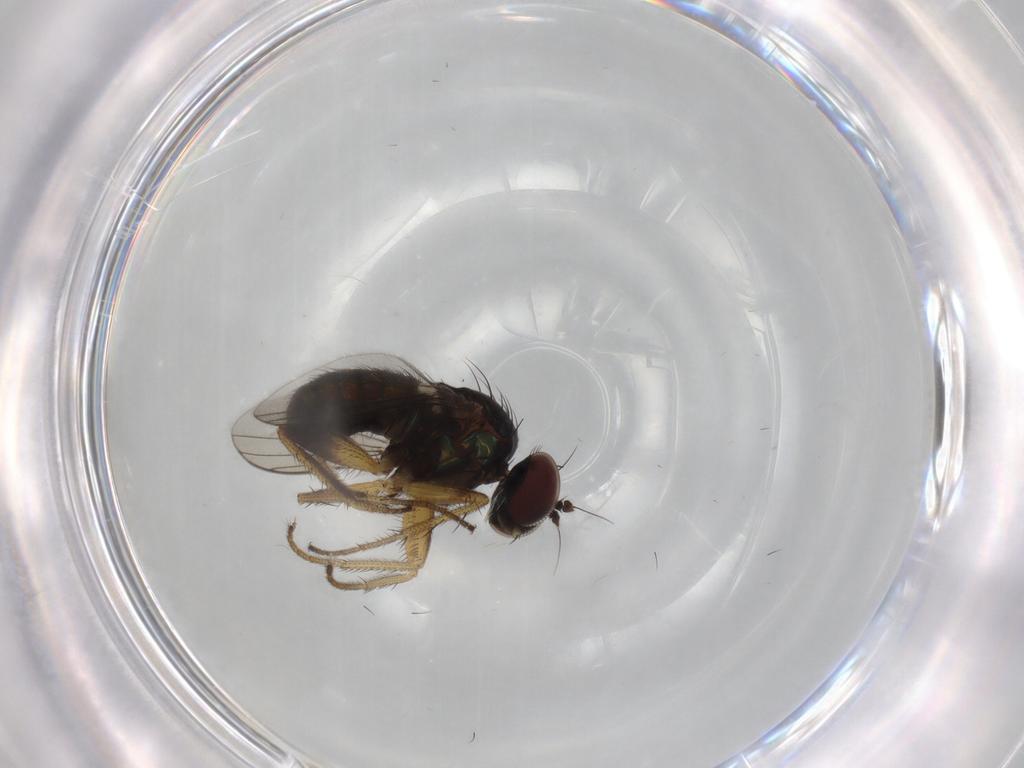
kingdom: Animalia
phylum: Arthropoda
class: Insecta
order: Diptera
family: Dolichopodidae
